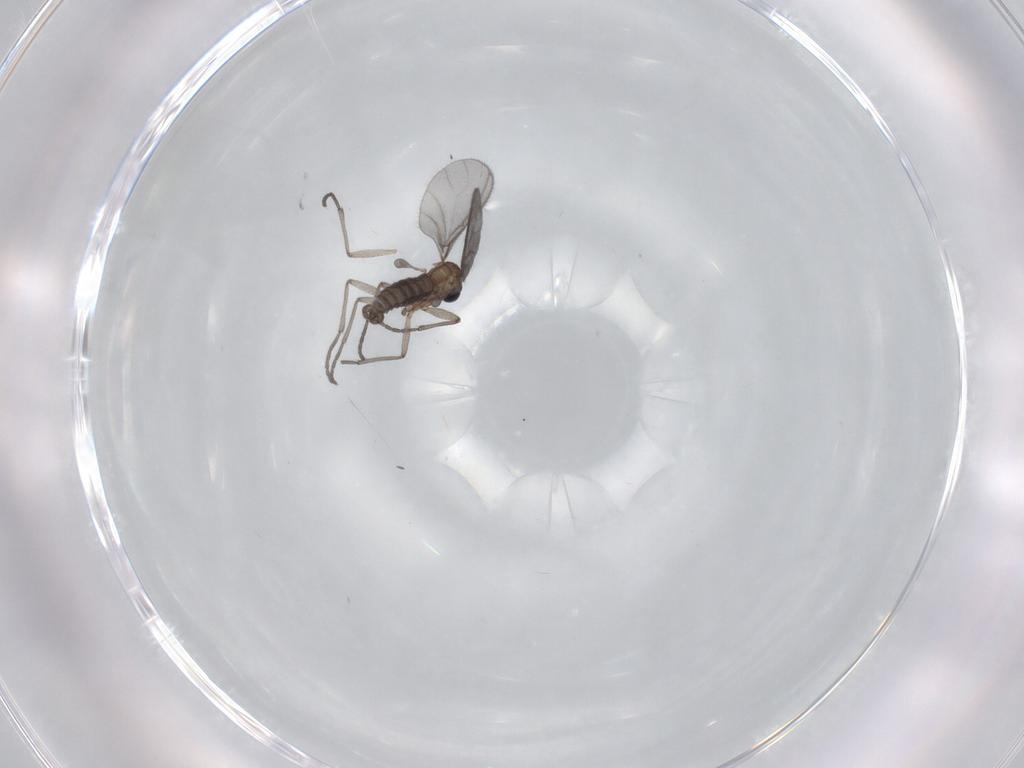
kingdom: Animalia
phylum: Arthropoda
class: Insecta
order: Diptera
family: Sciaridae
